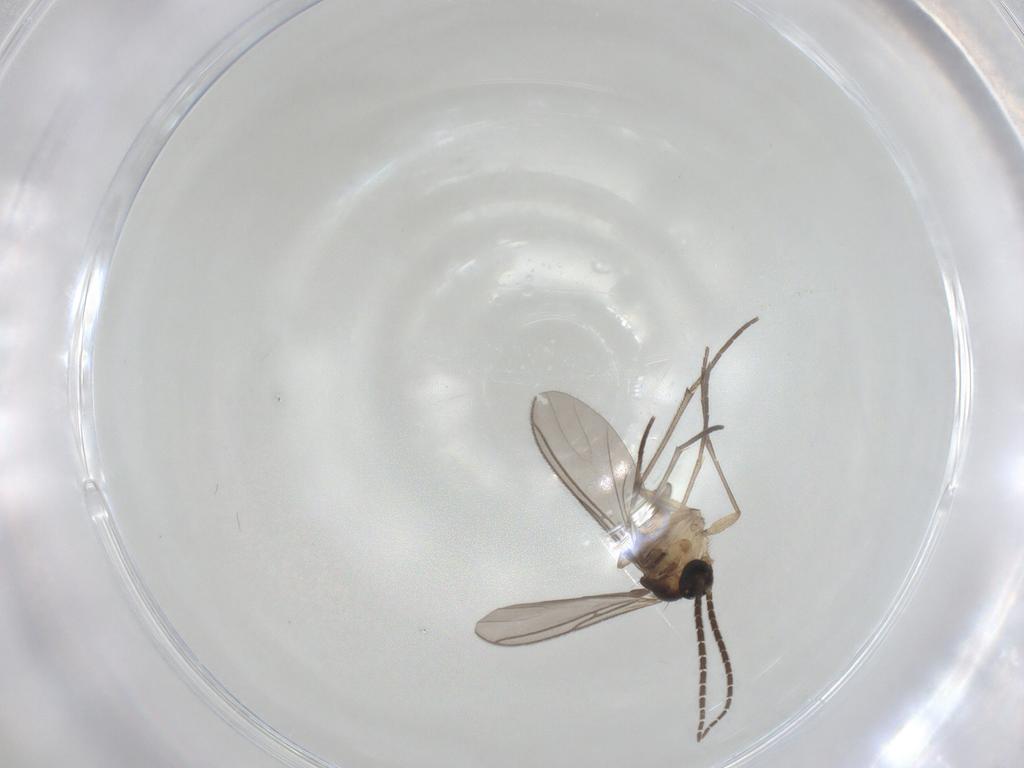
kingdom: Animalia
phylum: Arthropoda
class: Insecta
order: Diptera
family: Sciaridae
